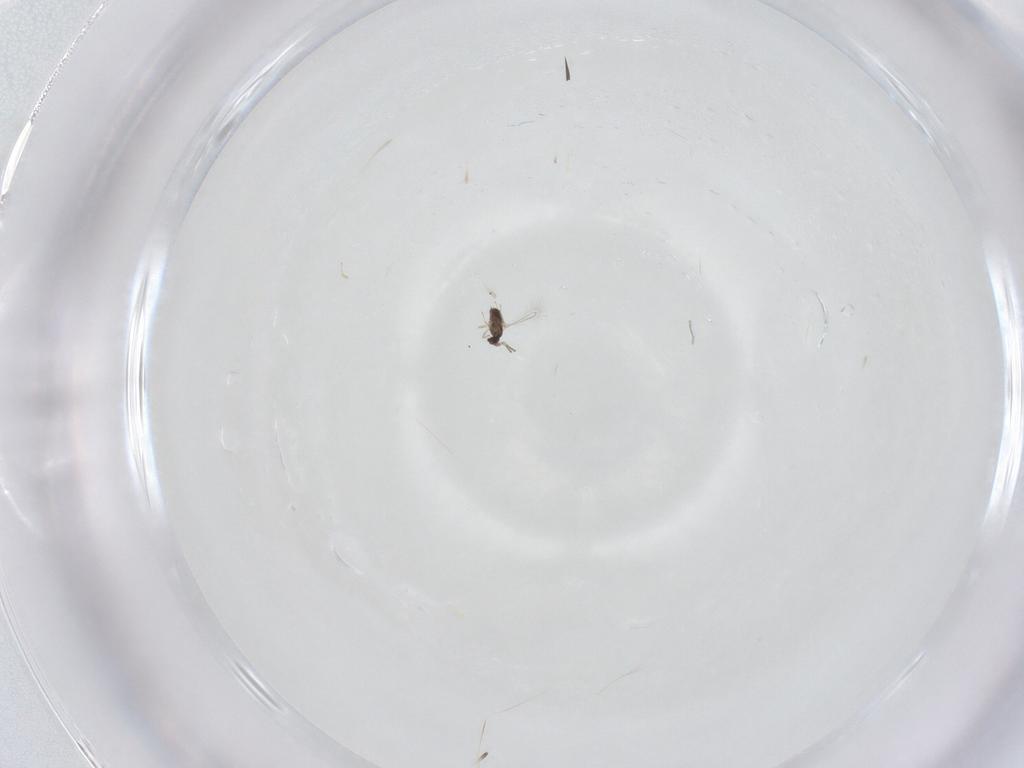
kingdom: Animalia
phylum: Arthropoda
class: Insecta
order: Hymenoptera
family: Mymaridae
